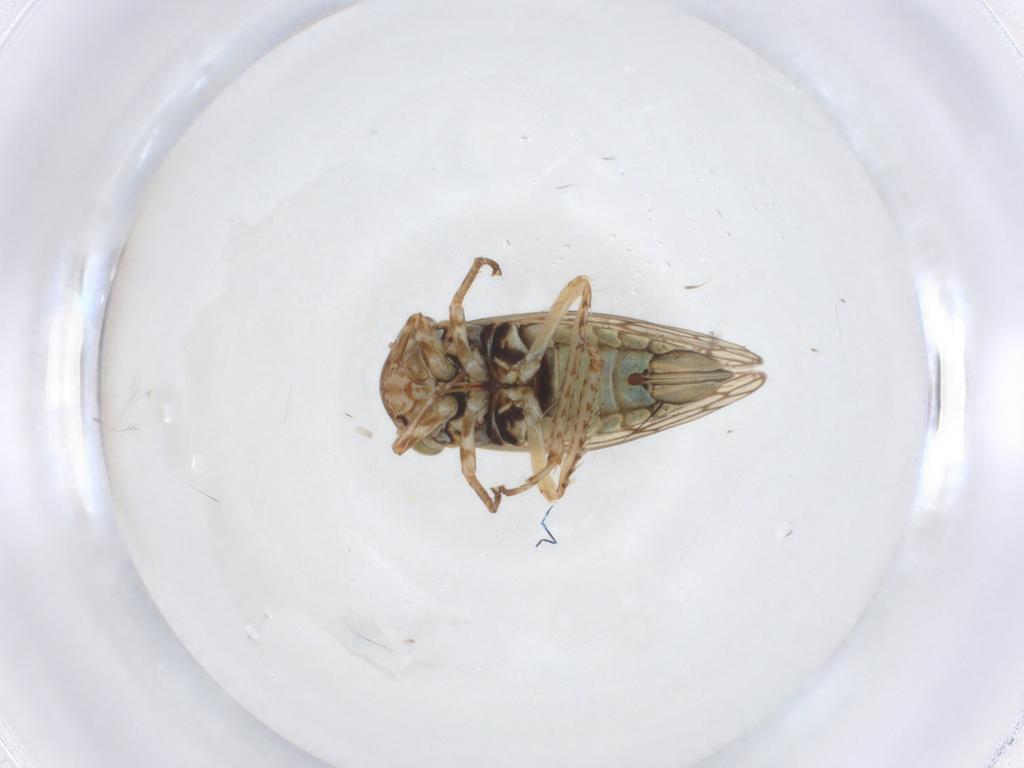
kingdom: Animalia
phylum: Arthropoda
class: Insecta
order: Hemiptera
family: Cicadellidae
